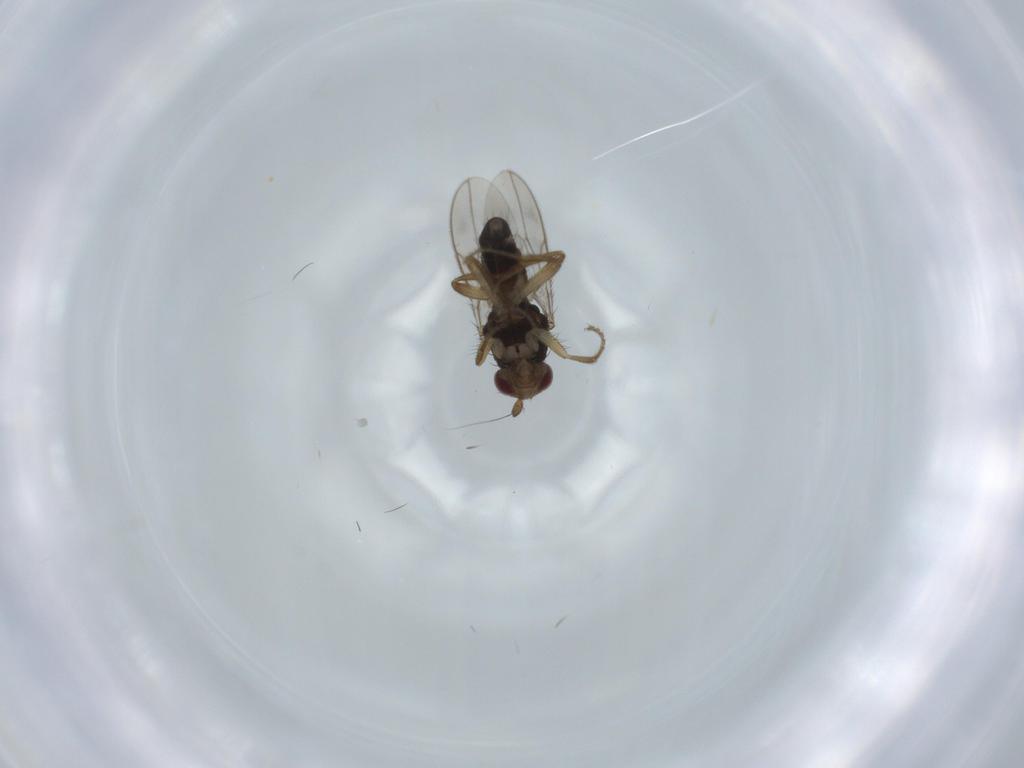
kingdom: Animalia
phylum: Arthropoda
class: Insecta
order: Diptera
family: Sphaeroceridae
